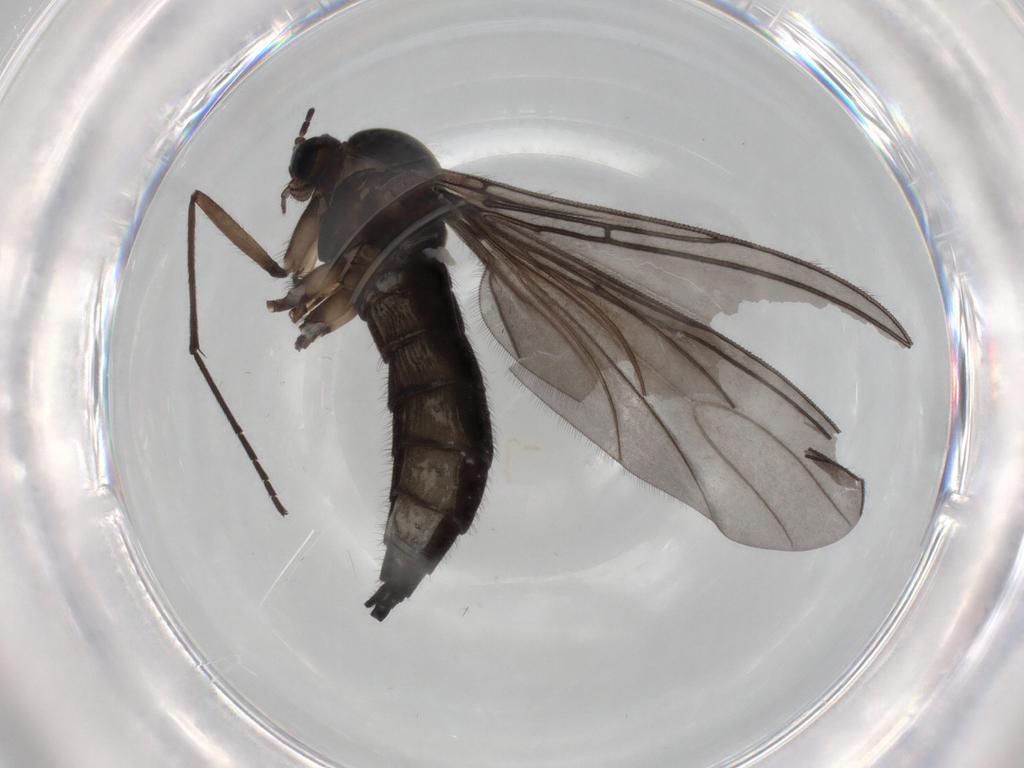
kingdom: Animalia
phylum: Arthropoda
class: Insecta
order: Diptera
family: Sciaridae
